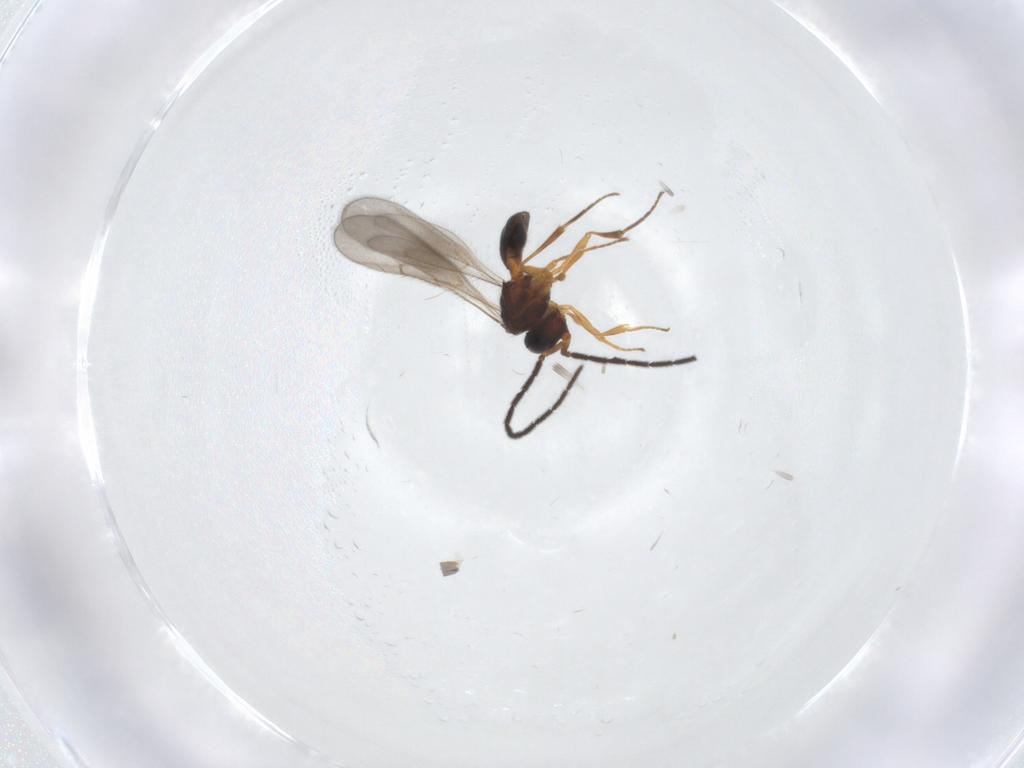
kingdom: Animalia
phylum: Arthropoda
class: Insecta
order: Hymenoptera
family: Scelionidae
